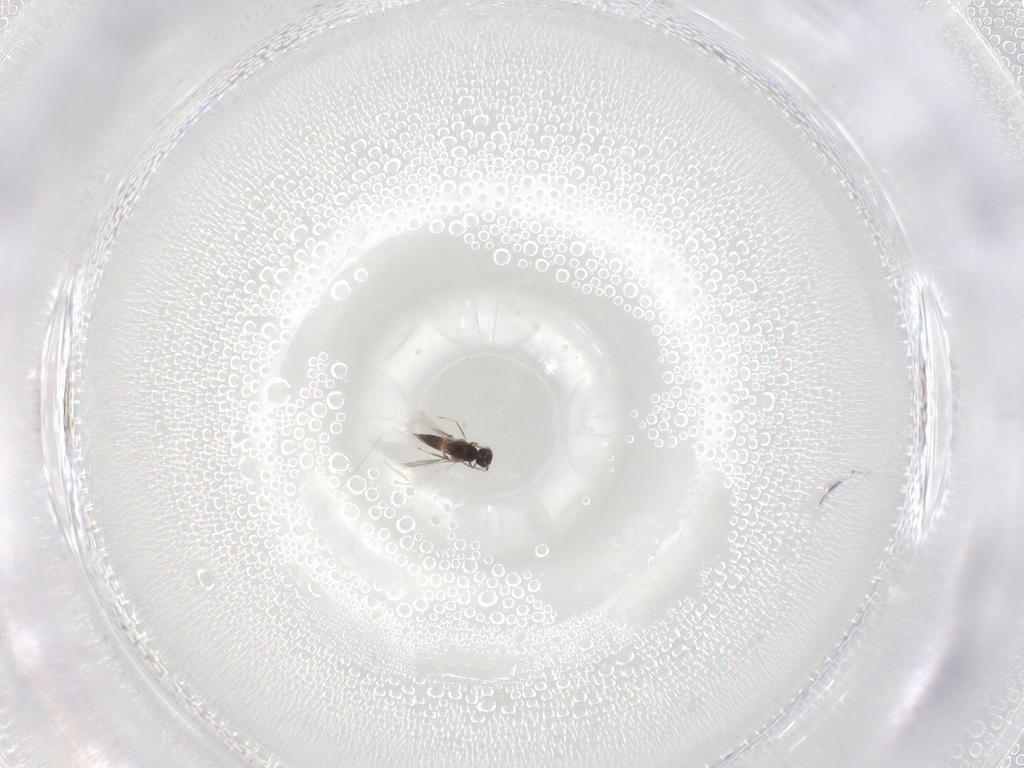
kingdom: Animalia
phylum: Arthropoda
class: Insecta
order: Hymenoptera
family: Mymaridae
